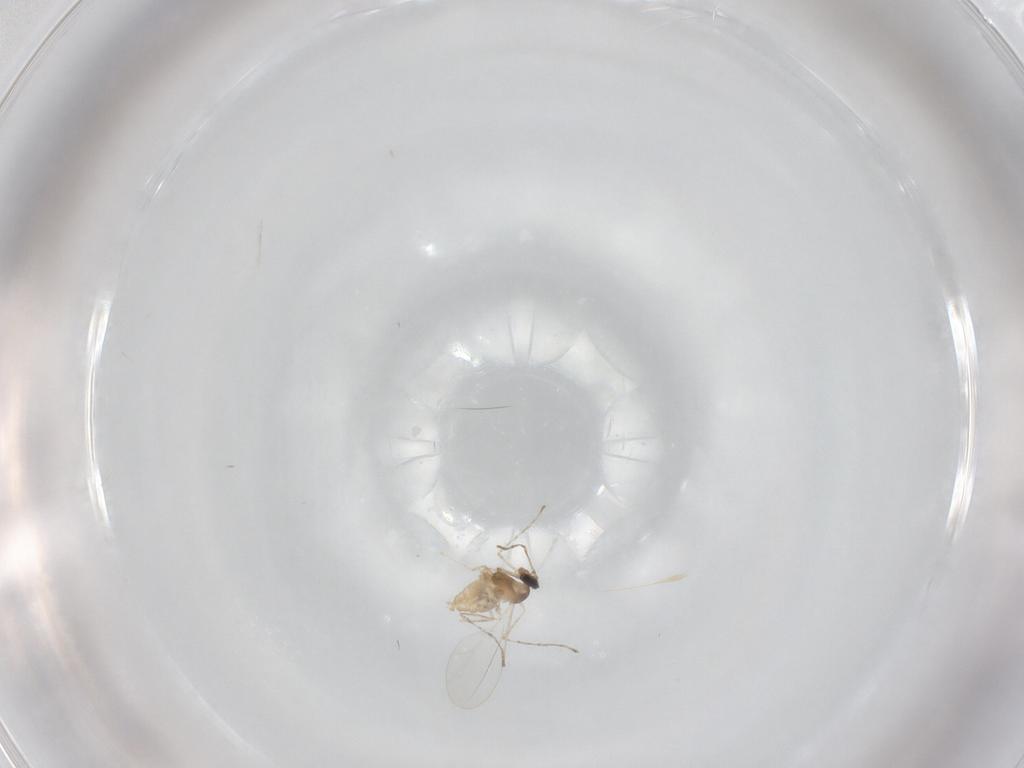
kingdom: Animalia
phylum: Arthropoda
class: Insecta
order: Diptera
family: Cecidomyiidae
